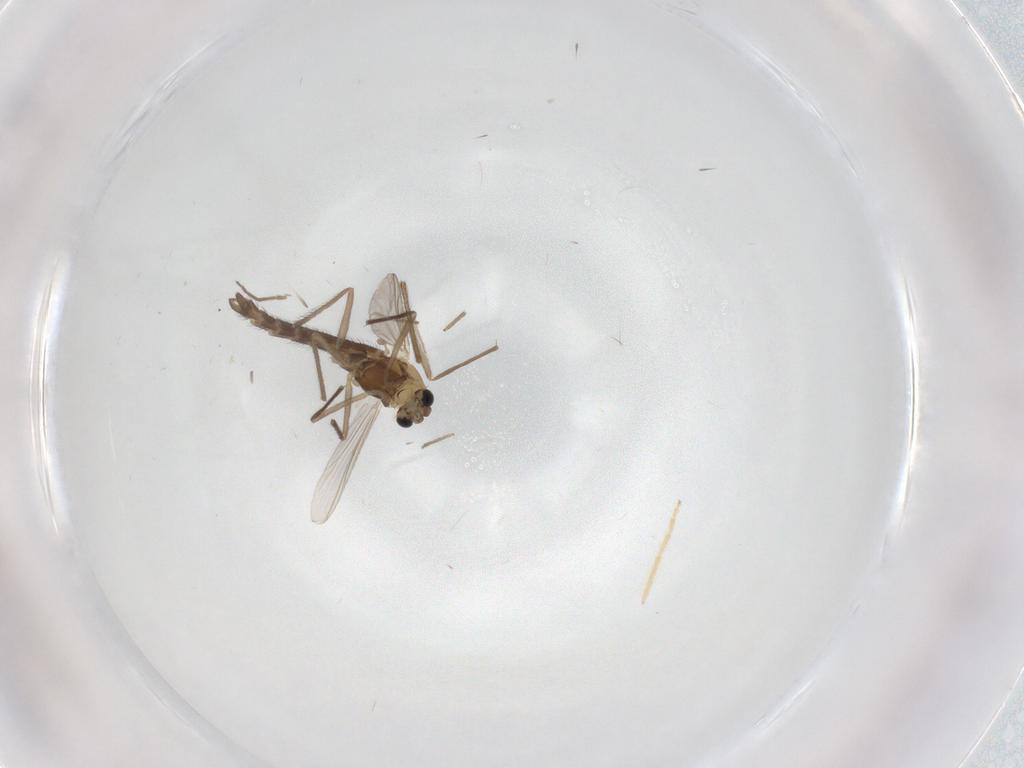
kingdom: Animalia
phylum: Arthropoda
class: Insecta
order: Diptera
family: Chironomidae
